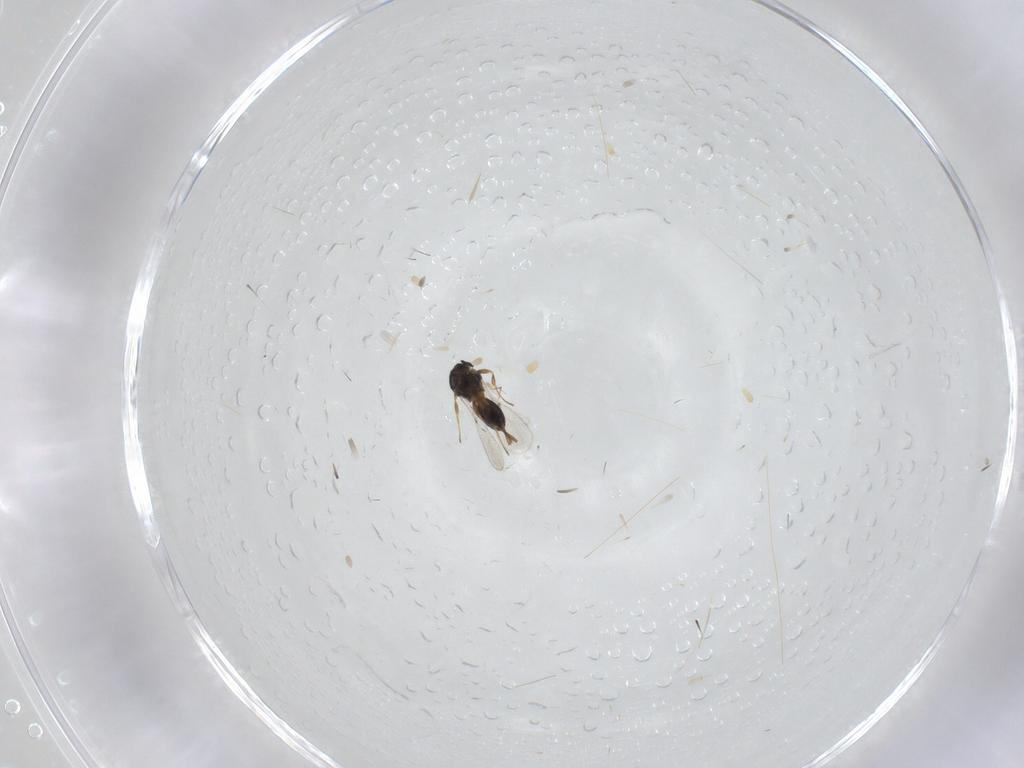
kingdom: Animalia
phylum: Arthropoda
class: Insecta
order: Hymenoptera
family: Platygastridae
